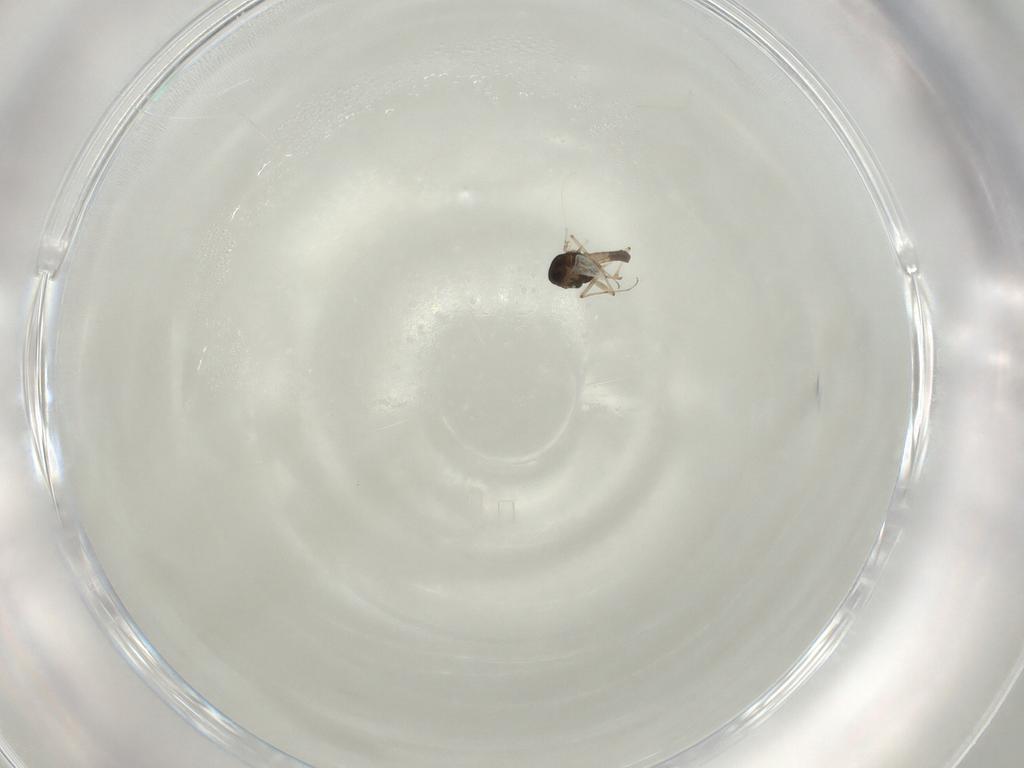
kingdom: Animalia
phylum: Arthropoda
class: Insecta
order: Diptera
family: Chironomidae
